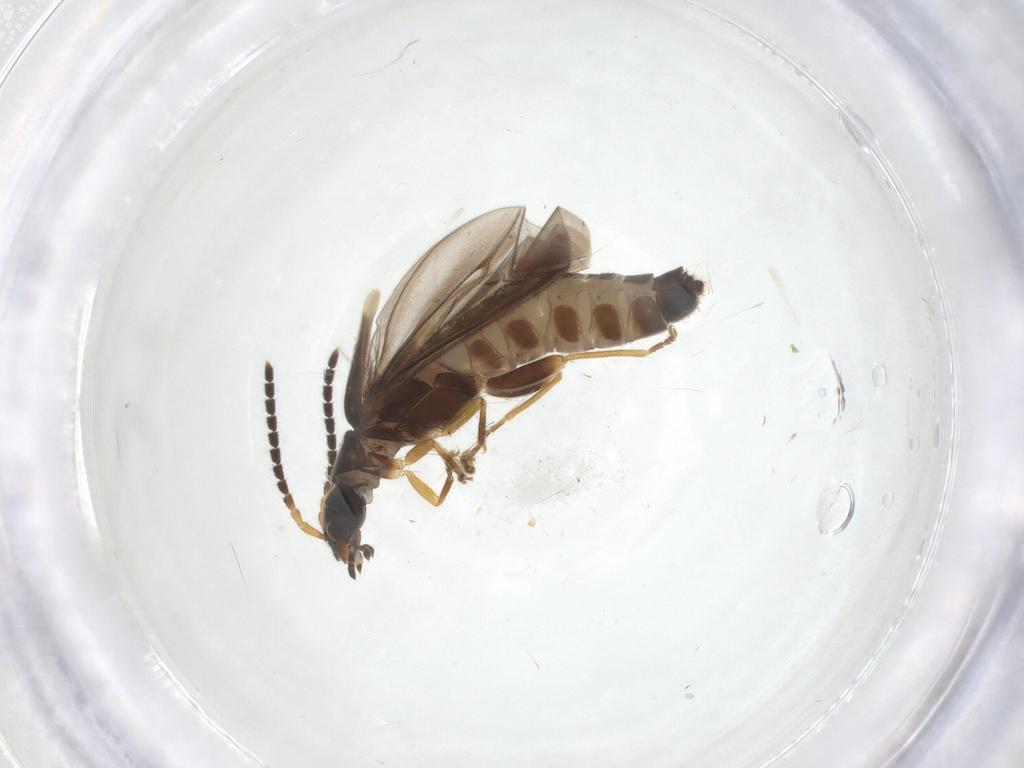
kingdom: Animalia
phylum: Arthropoda
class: Insecta
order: Coleoptera
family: Cantharidae
